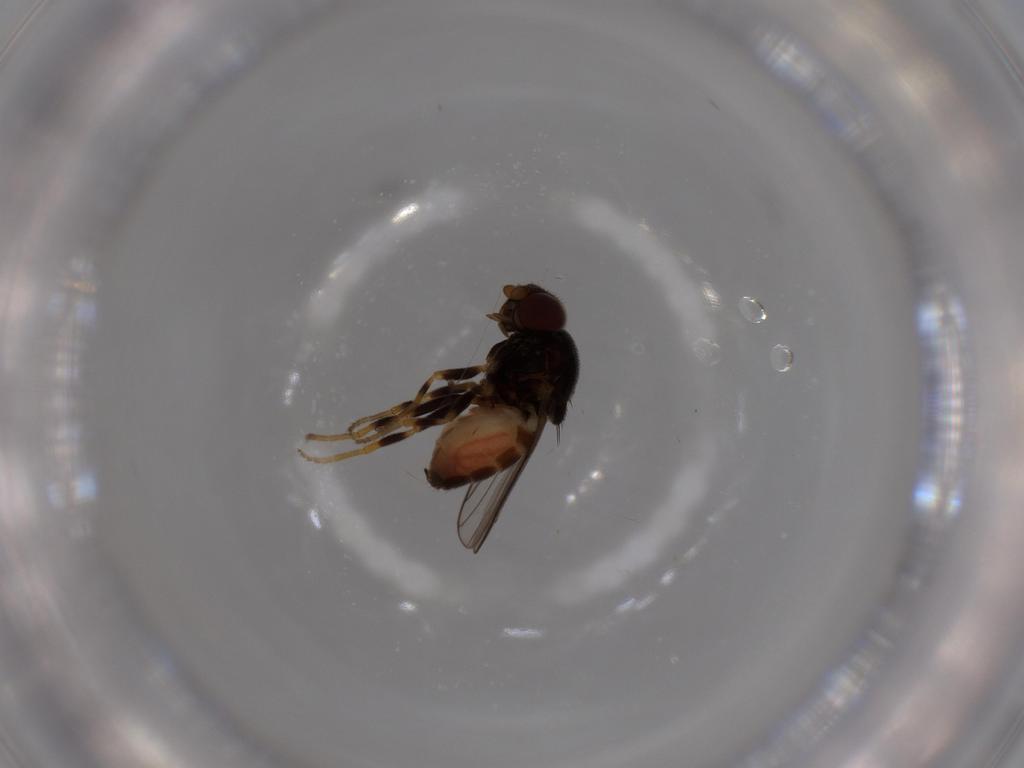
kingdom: Animalia
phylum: Arthropoda
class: Insecta
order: Diptera
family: Chloropidae
